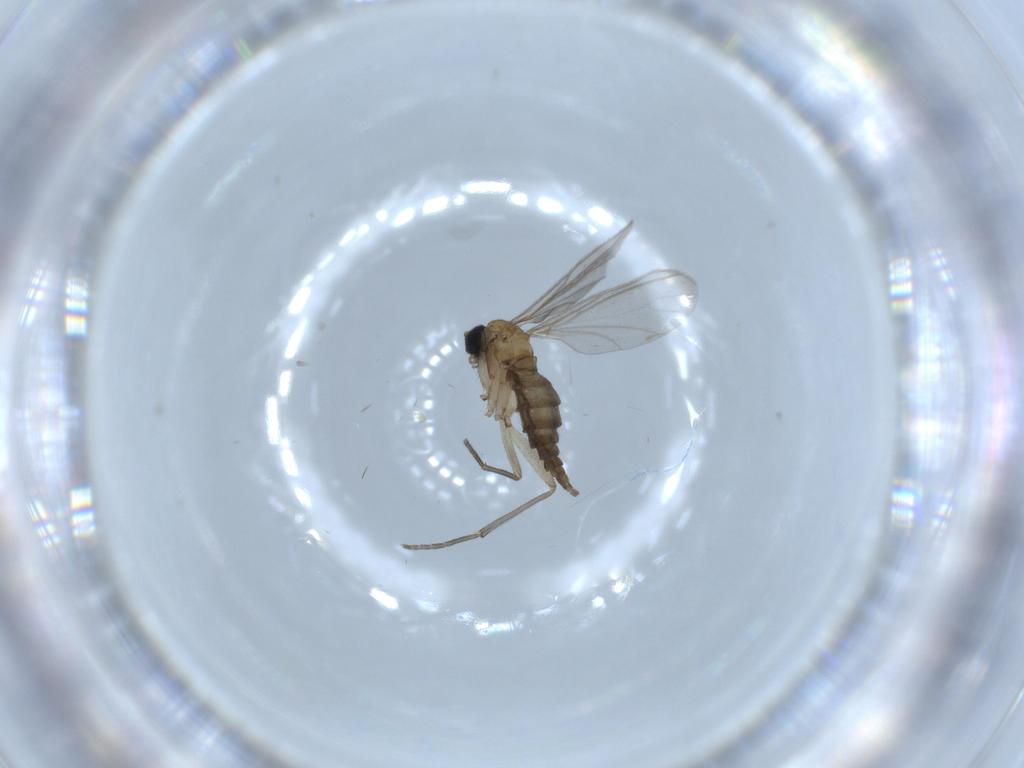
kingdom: Animalia
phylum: Arthropoda
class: Insecta
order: Diptera
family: Sciaridae
